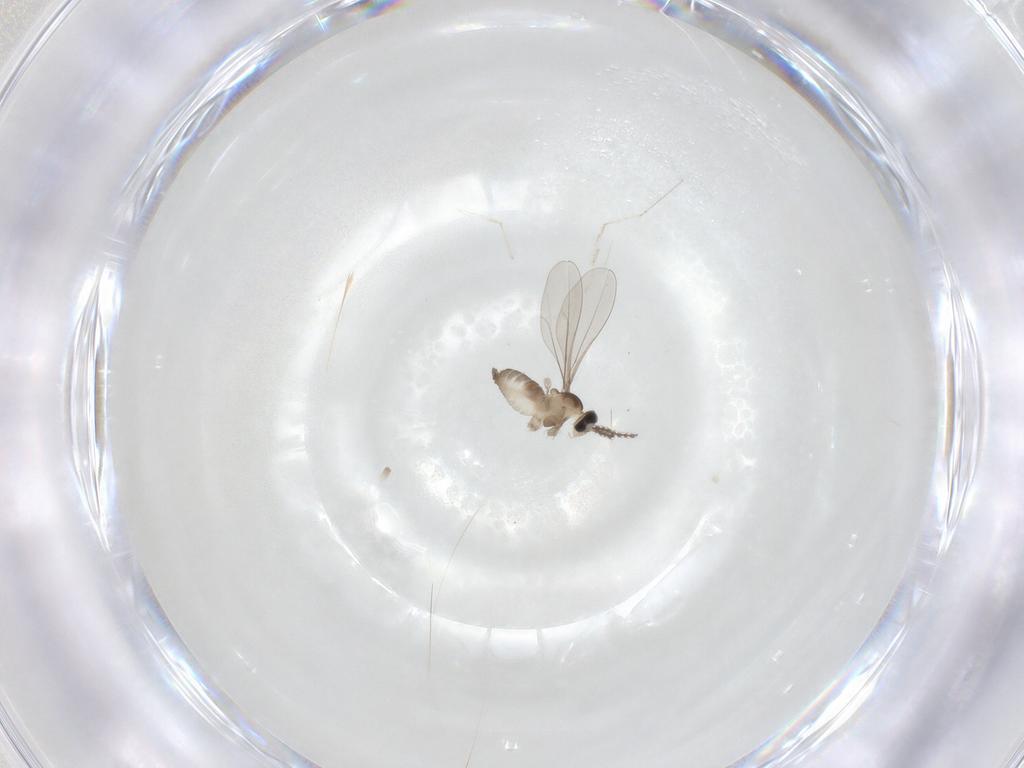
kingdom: Animalia
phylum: Arthropoda
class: Insecta
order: Diptera
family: Cecidomyiidae
